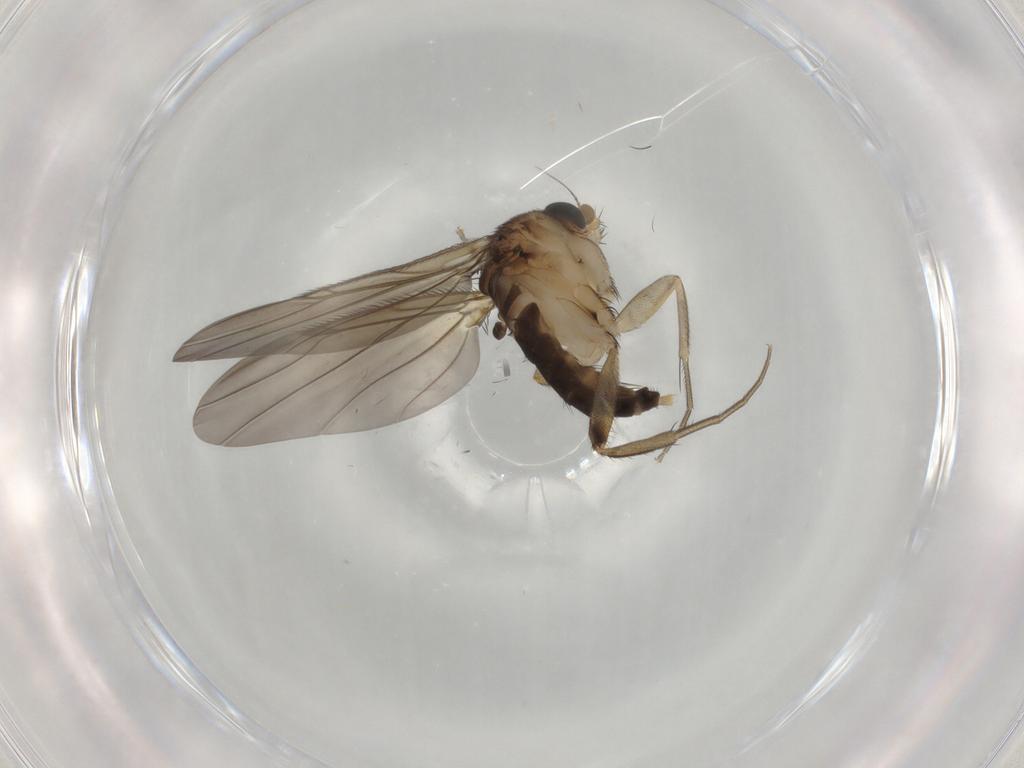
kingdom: Animalia
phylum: Arthropoda
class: Insecta
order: Diptera
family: Phoridae
